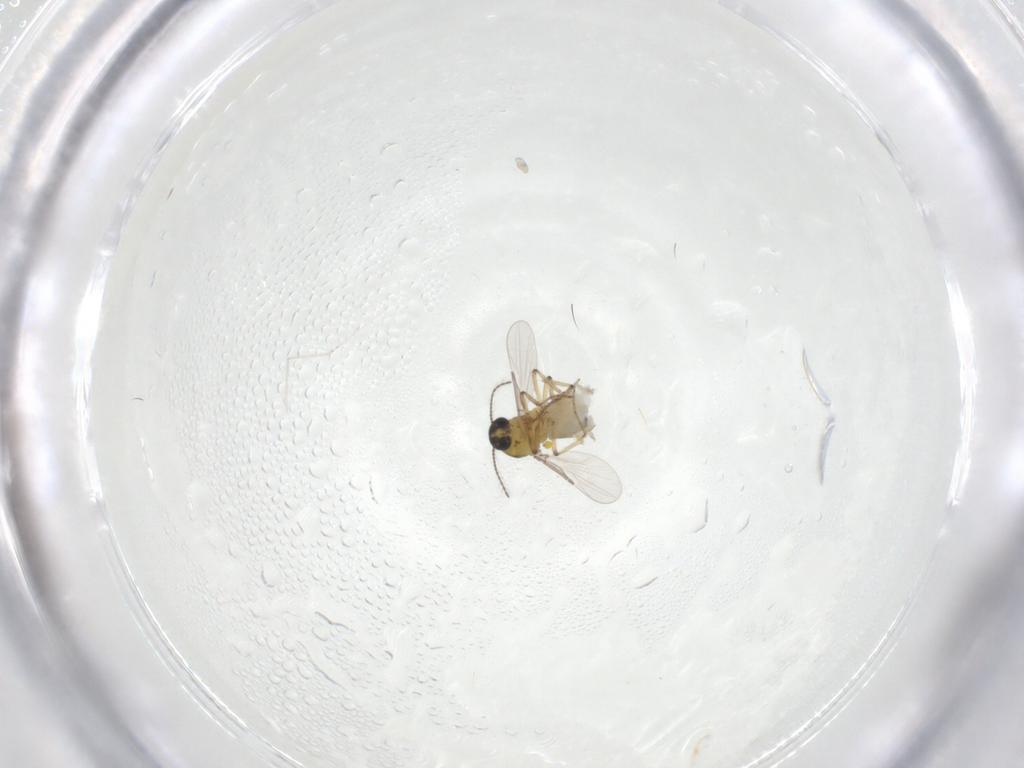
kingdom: Animalia
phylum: Arthropoda
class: Insecta
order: Diptera
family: Ceratopogonidae
